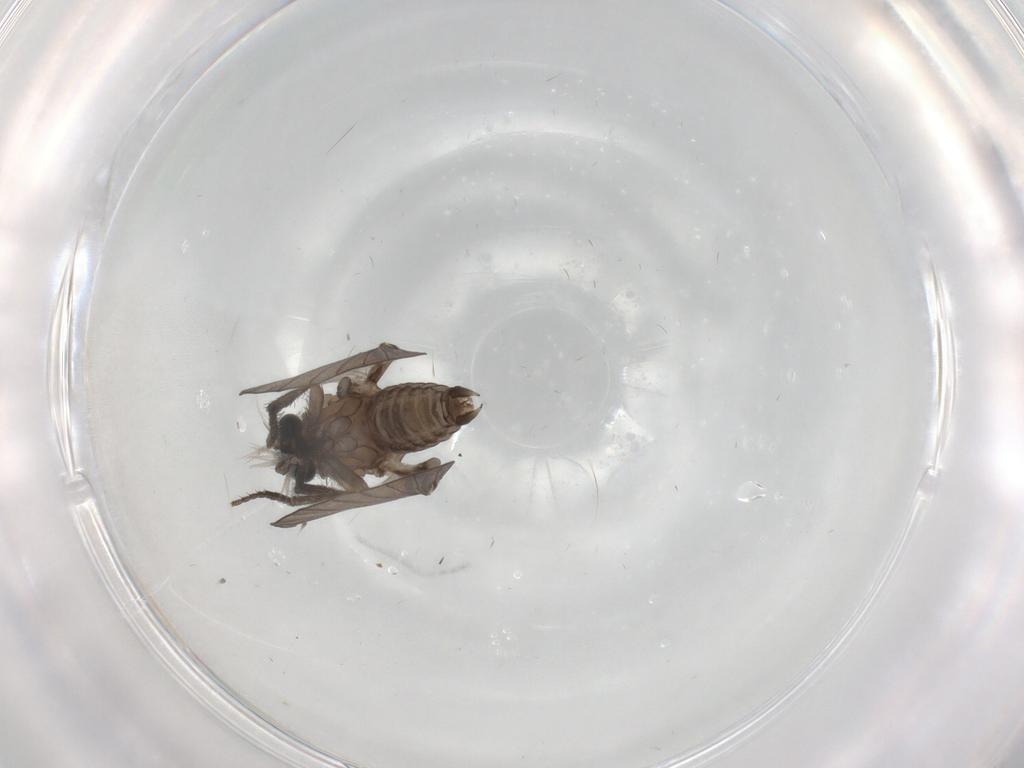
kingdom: Animalia
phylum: Arthropoda
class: Insecta
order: Diptera
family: Psychodidae
